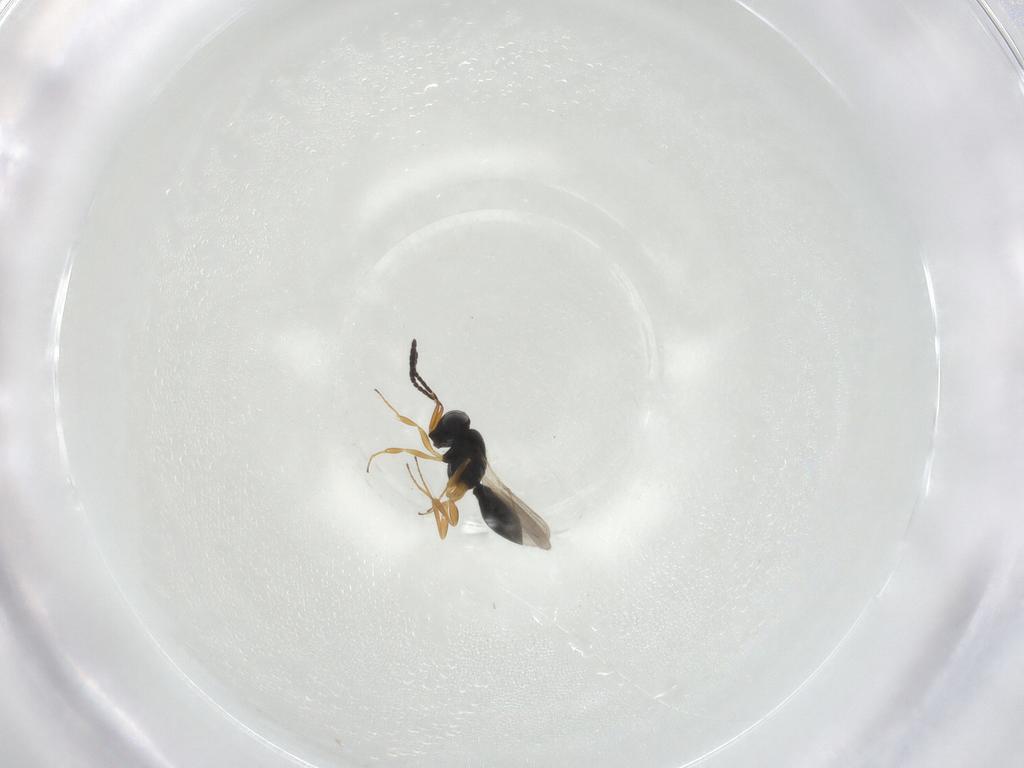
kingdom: Animalia
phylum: Arthropoda
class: Insecta
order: Hymenoptera
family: Scelionidae
